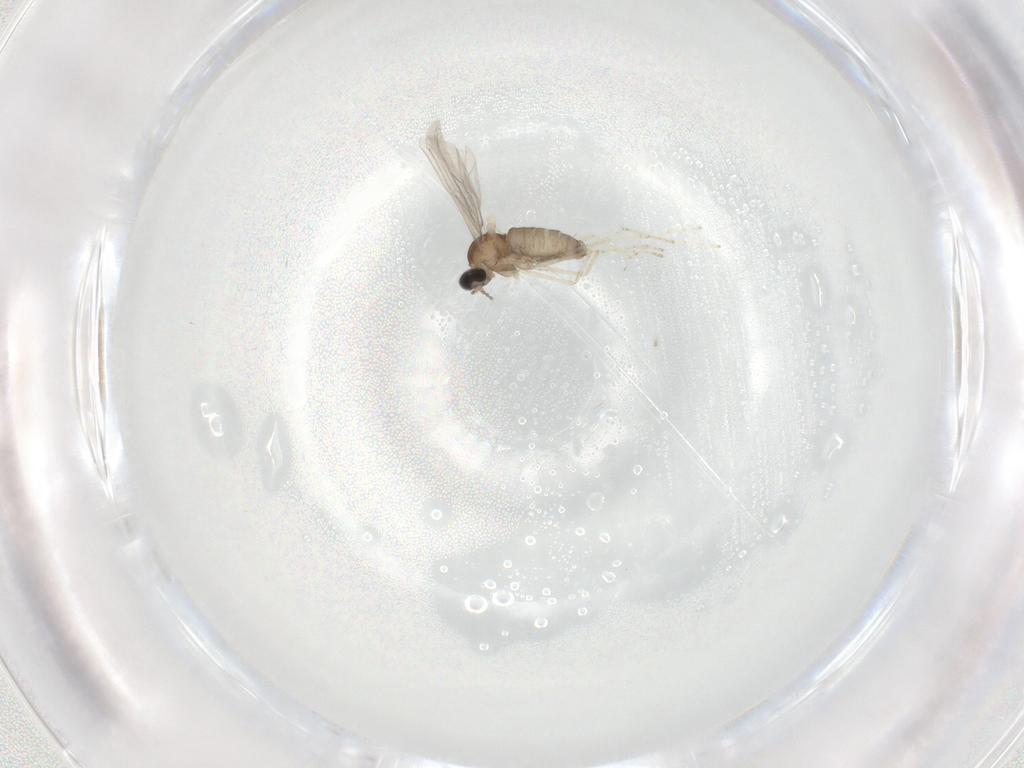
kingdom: Animalia
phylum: Arthropoda
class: Insecta
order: Diptera
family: Cecidomyiidae
